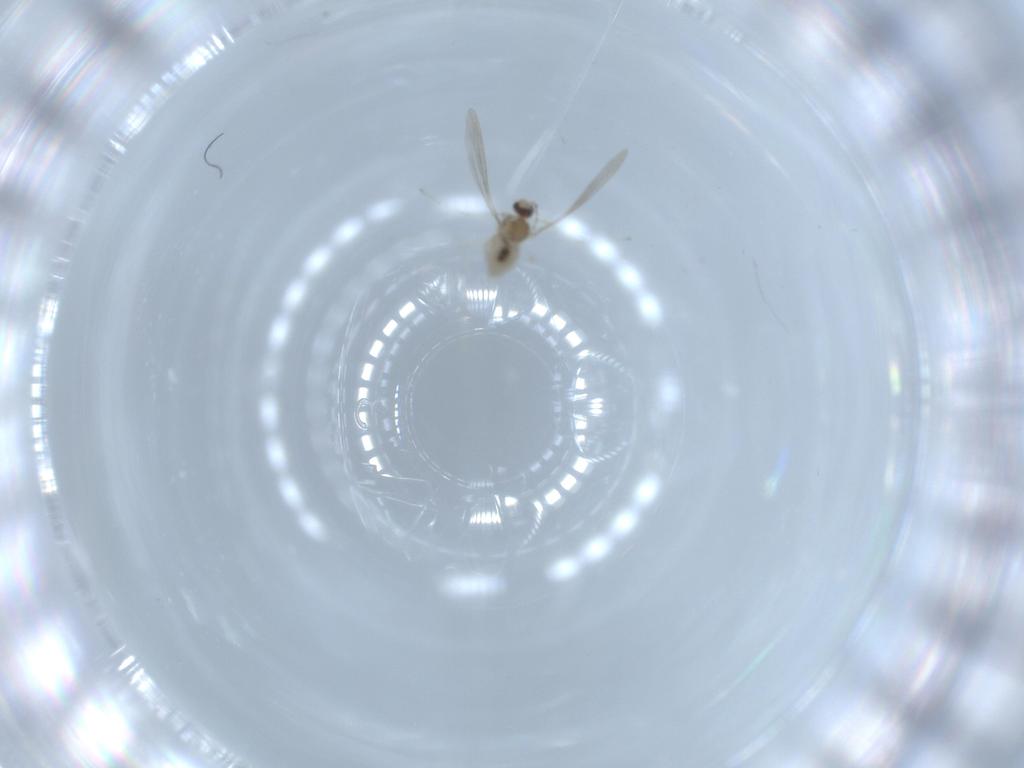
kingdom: Animalia
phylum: Arthropoda
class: Insecta
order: Diptera
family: Cecidomyiidae
